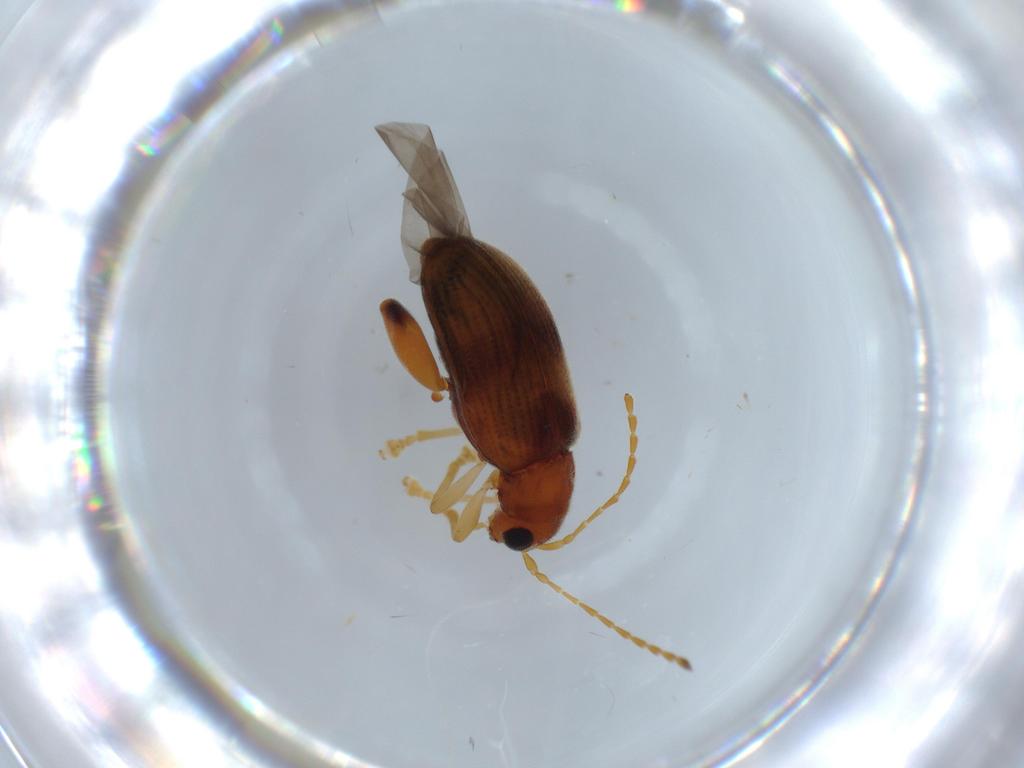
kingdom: Animalia
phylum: Arthropoda
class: Insecta
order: Coleoptera
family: Chrysomelidae
